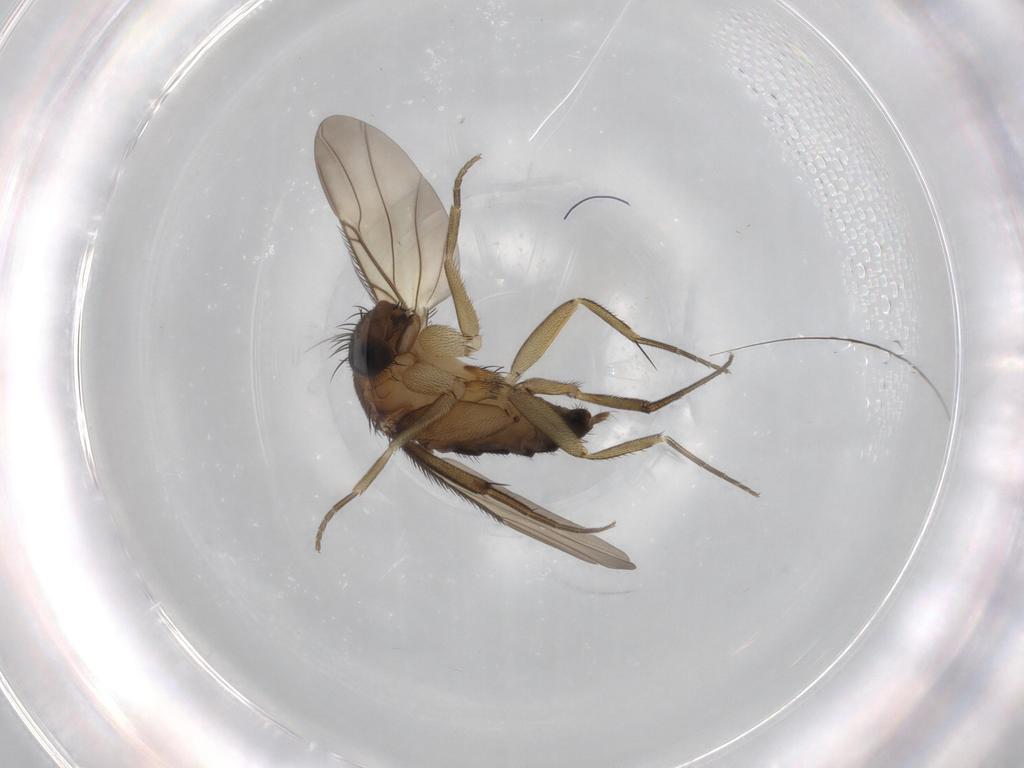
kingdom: Animalia
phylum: Arthropoda
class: Insecta
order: Diptera
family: Phoridae
